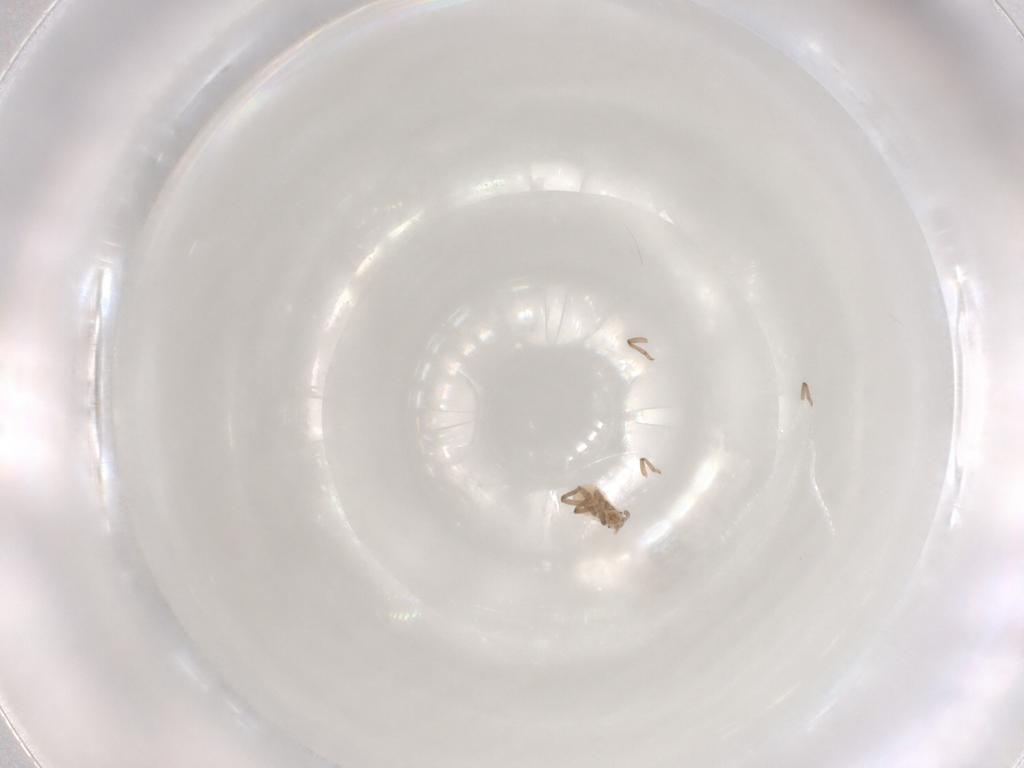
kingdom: Animalia
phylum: Arthropoda
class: Insecta
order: Hemiptera
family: Aphididae
